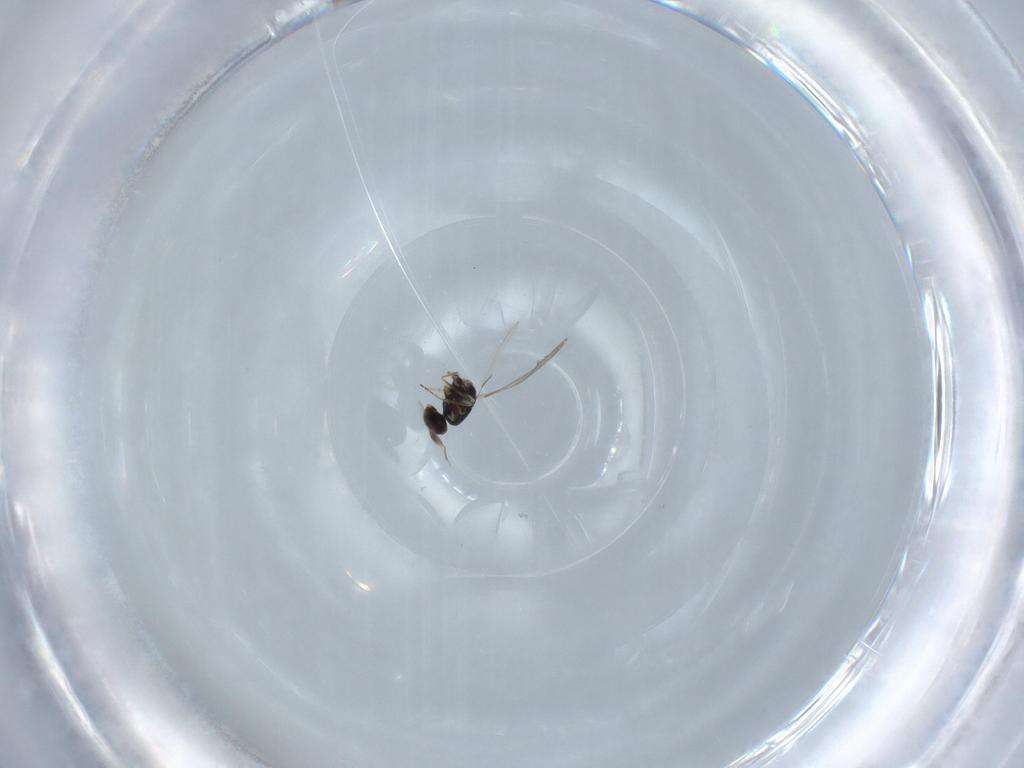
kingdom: Animalia
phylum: Arthropoda
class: Insecta
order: Hymenoptera
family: Mymaridae
